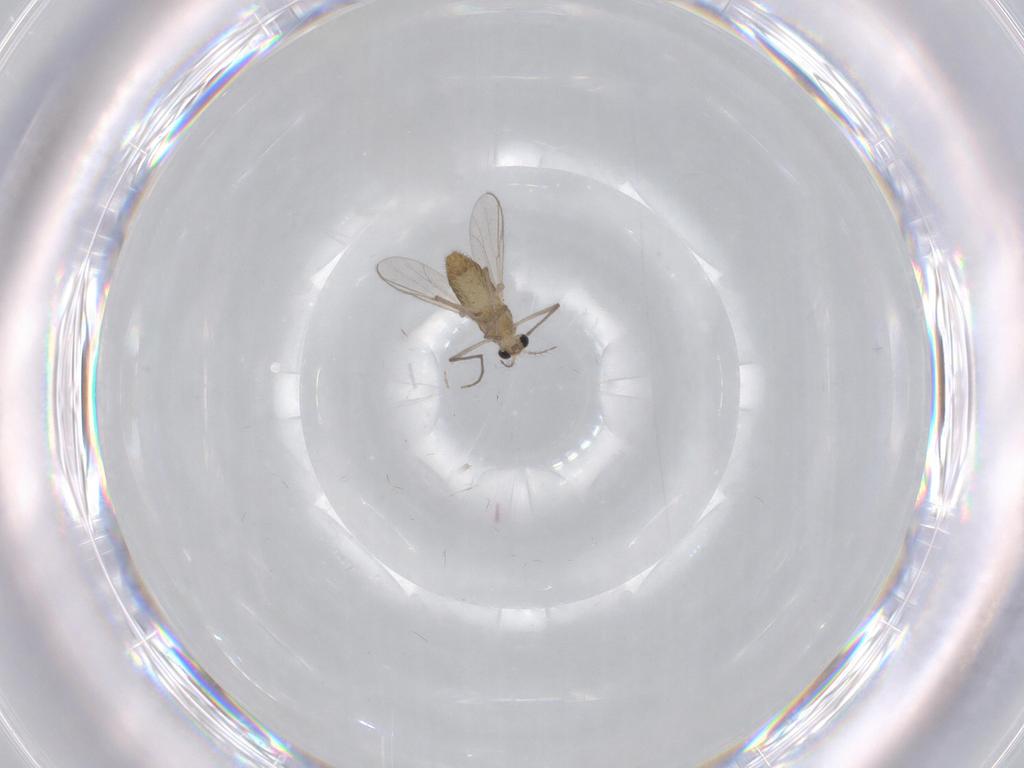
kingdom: Animalia
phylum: Arthropoda
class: Insecta
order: Diptera
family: Chironomidae
